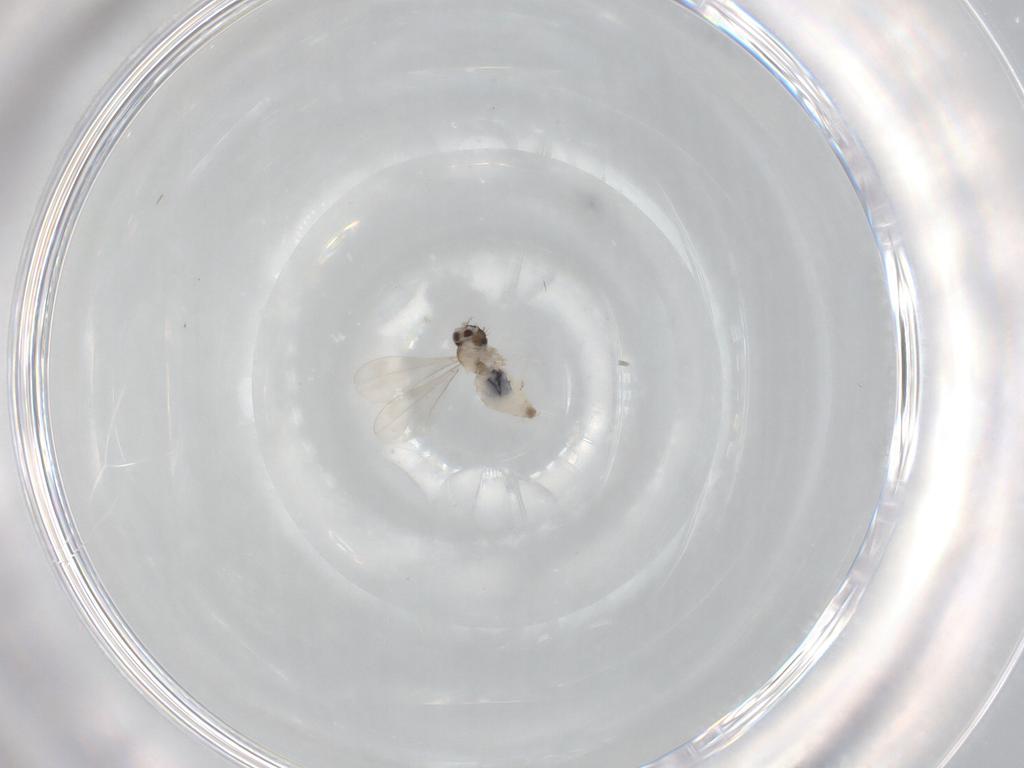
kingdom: Animalia
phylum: Arthropoda
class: Insecta
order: Diptera
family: Cecidomyiidae
